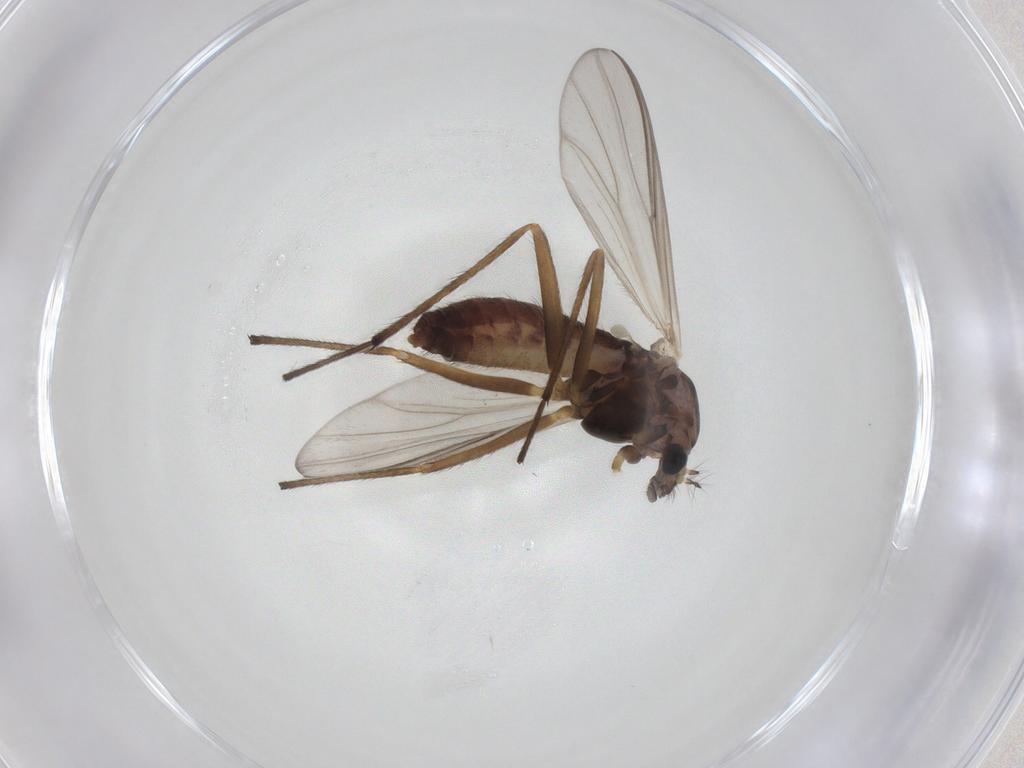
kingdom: Animalia
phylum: Arthropoda
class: Insecta
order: Diptera
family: Chironomidae
